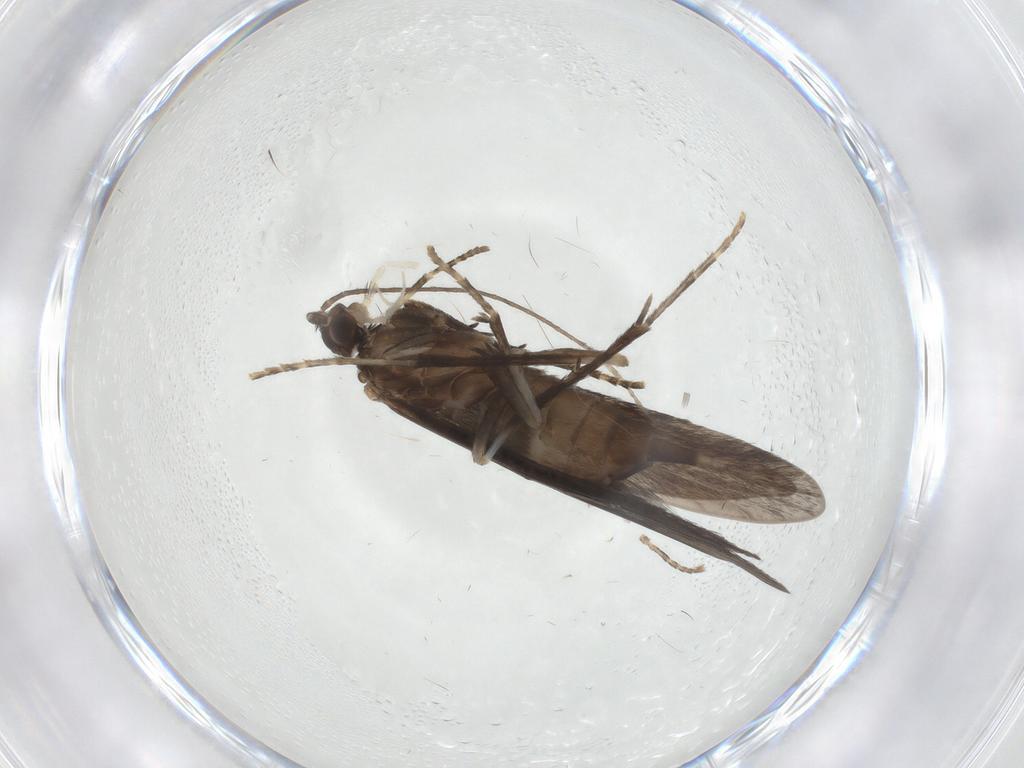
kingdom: Animalia
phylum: Arthropoda
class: Insecta
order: Trichoptera
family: Xiphocentronidae
